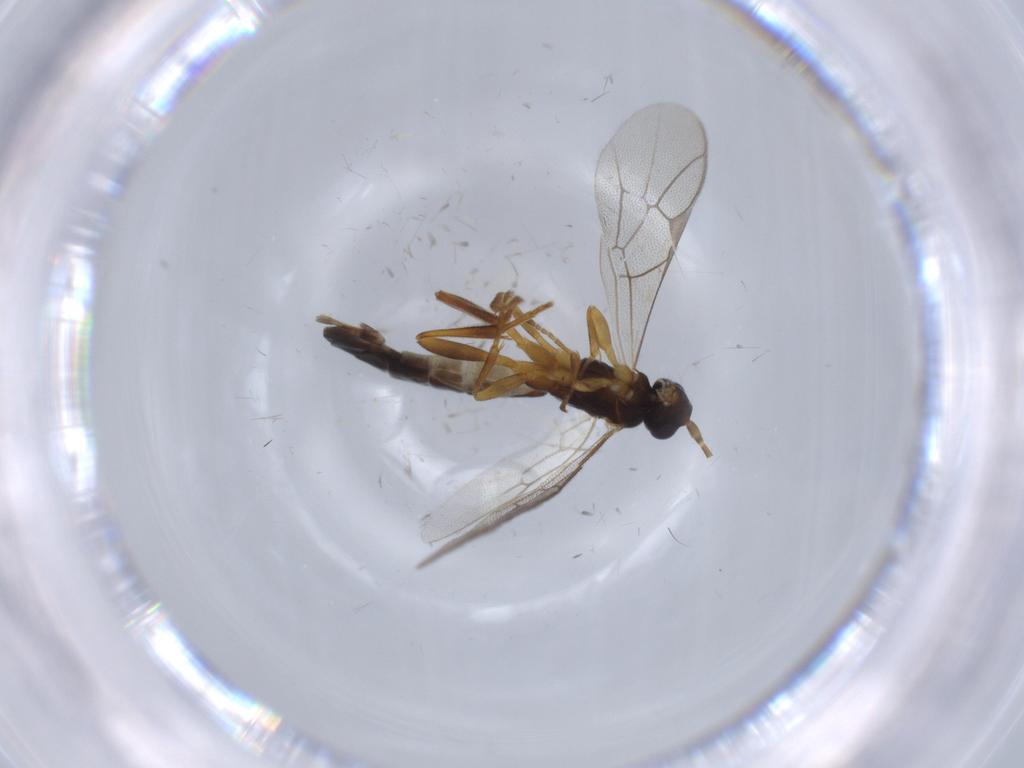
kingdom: Animalia
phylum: Arthropoda
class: Insecta
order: Hymenoptera
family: Ichneumonidae
